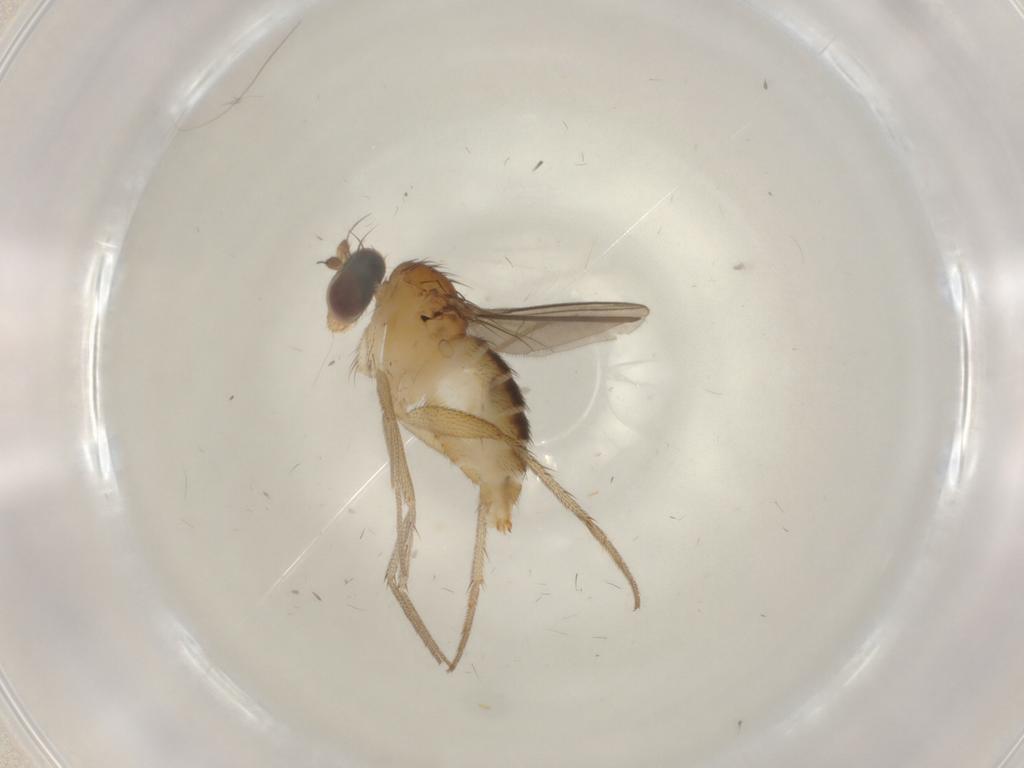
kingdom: Animalia
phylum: Arthropoda
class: Insecta
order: Diptera
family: Dolichopodidae
